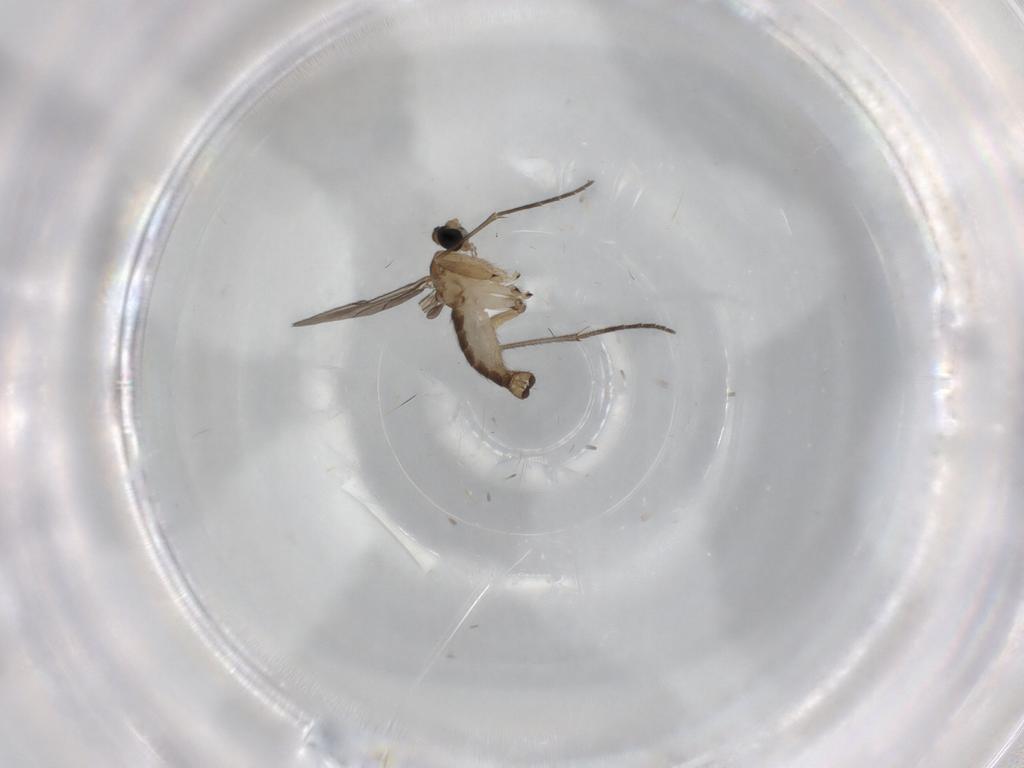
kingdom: Animalia
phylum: Arthropoda
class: Insecta
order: Diptera
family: Sciaridae
